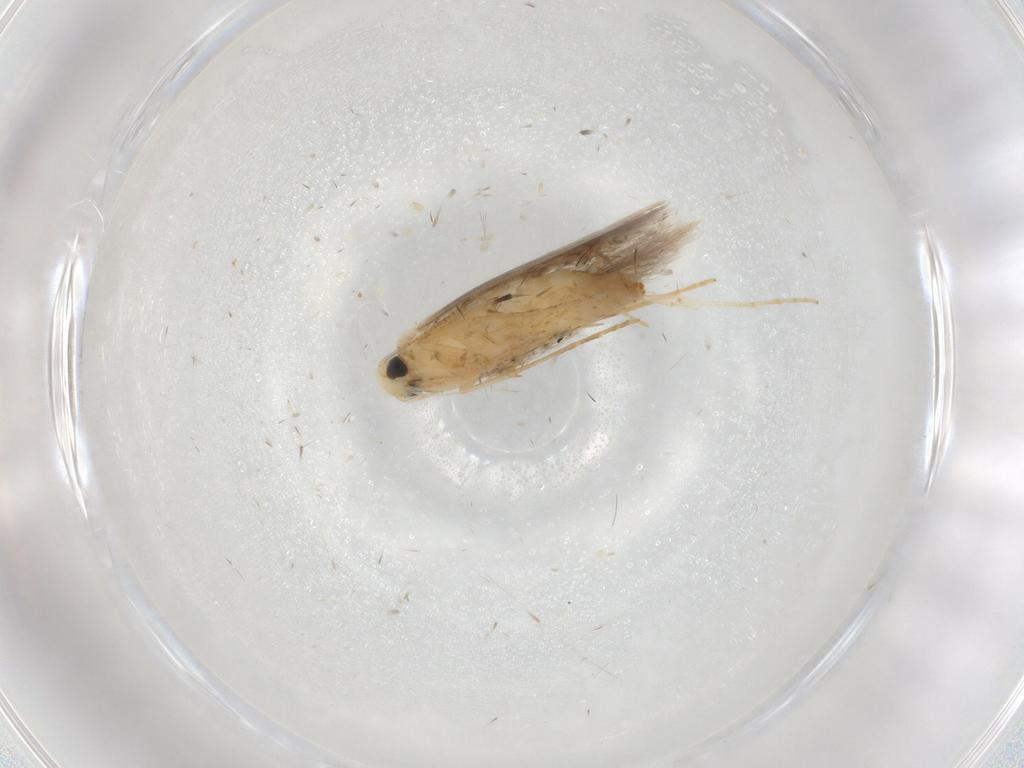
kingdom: Animalia
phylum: Arthropoda
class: Insecta
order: Lepidoptera
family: Tischeriidae
